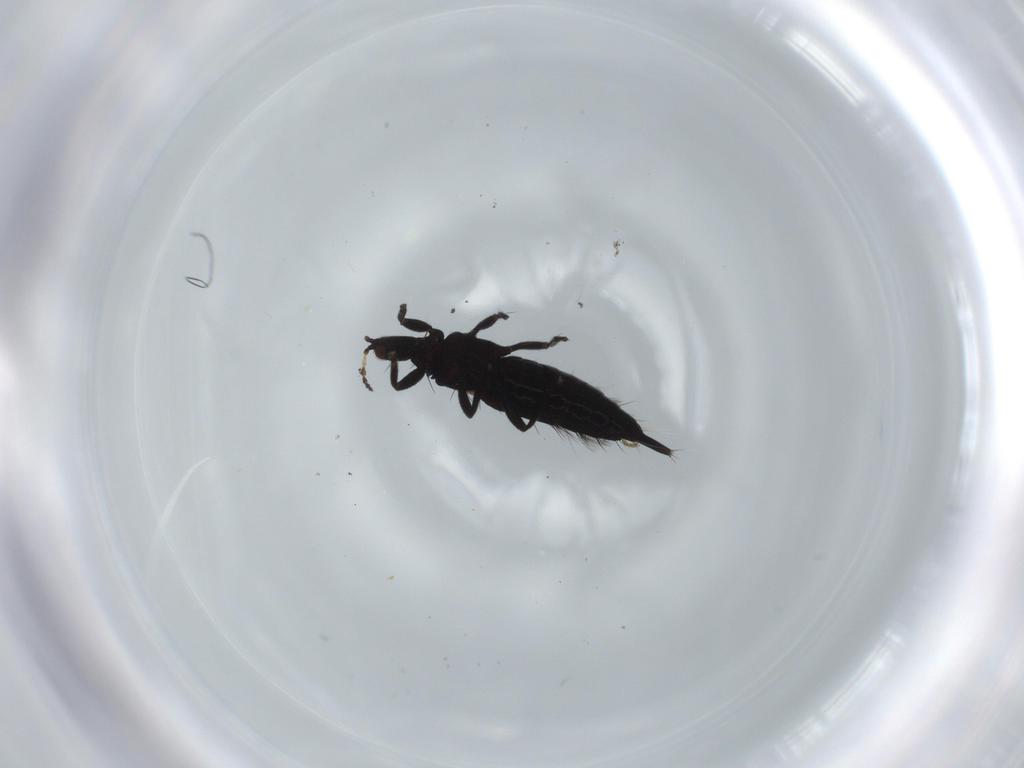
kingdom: Animalia
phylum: Arthropoda
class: Insecta
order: Thysanoptera
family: Phlaeothripidae
